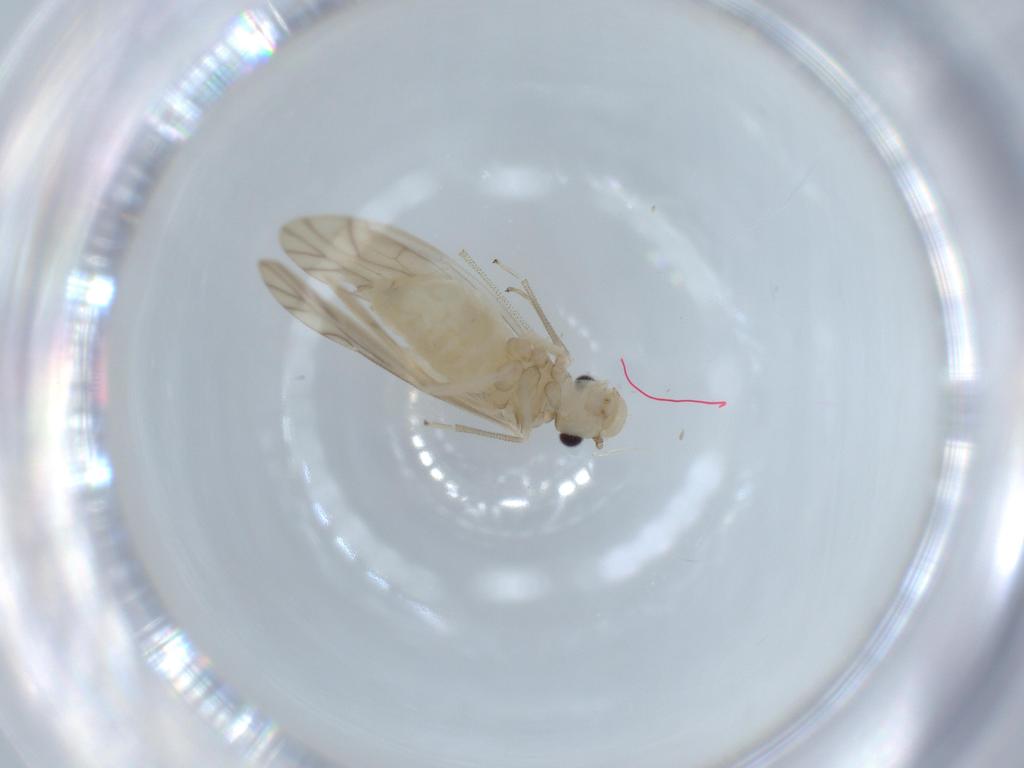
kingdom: Animalia
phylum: Arthropoda
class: Insecta
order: Psocodea
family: Caeciliusidae
